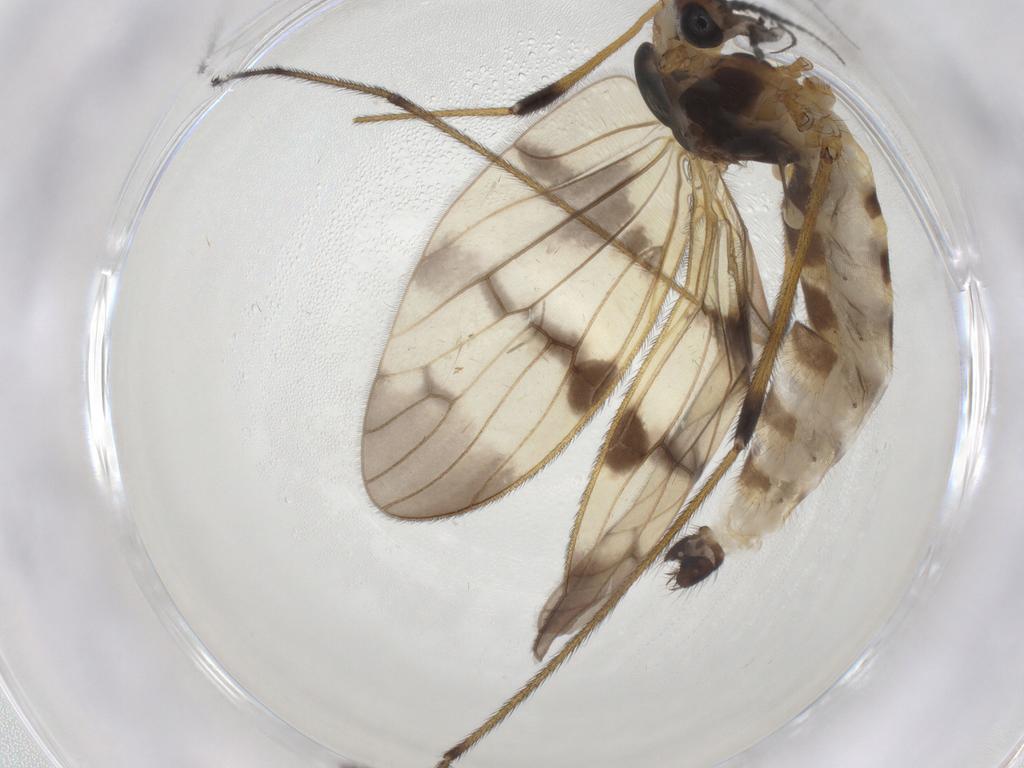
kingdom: Animalia
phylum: Arthropoda
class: Insecta
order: Diptera
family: Limoniidae
